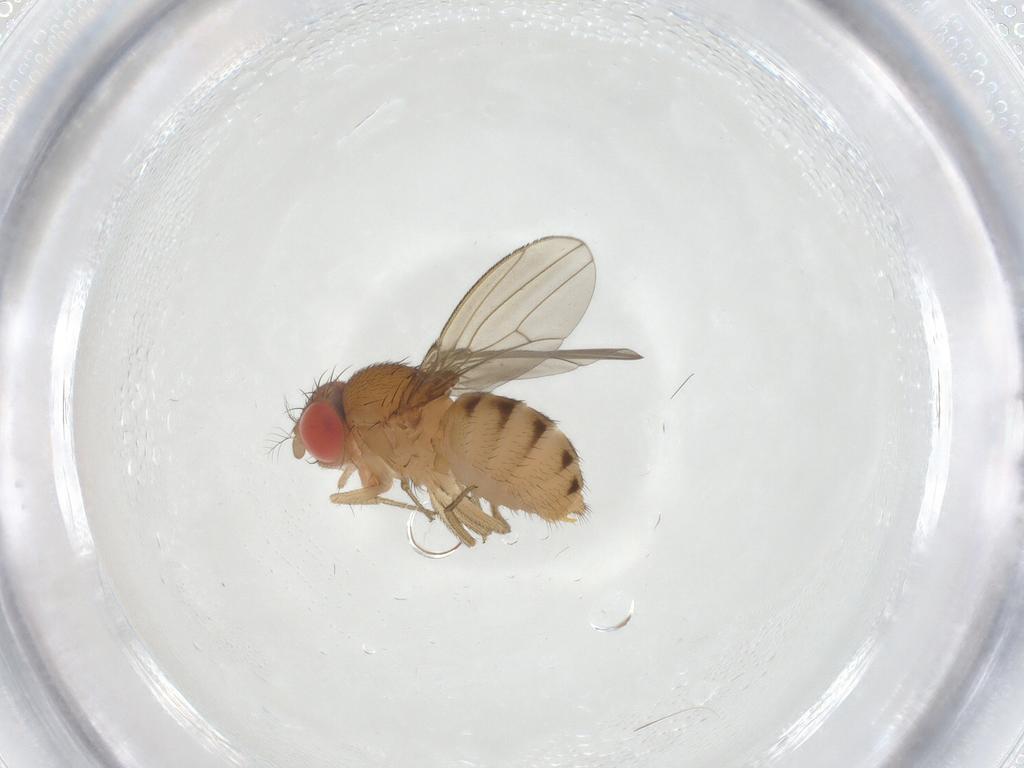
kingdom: Animalia
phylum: Arthropoda
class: Insecta
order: Diptera
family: Drosophilidae
